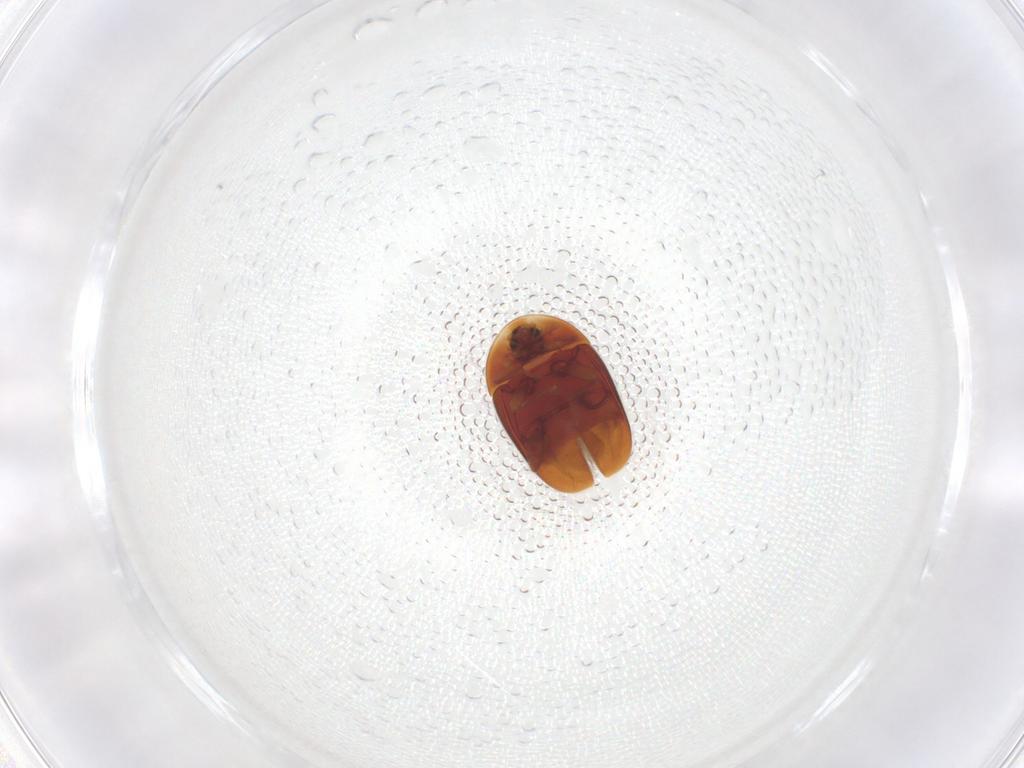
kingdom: Animalia
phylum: Arthropoda
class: Insecta
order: Coleoptera
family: Corylophidae
